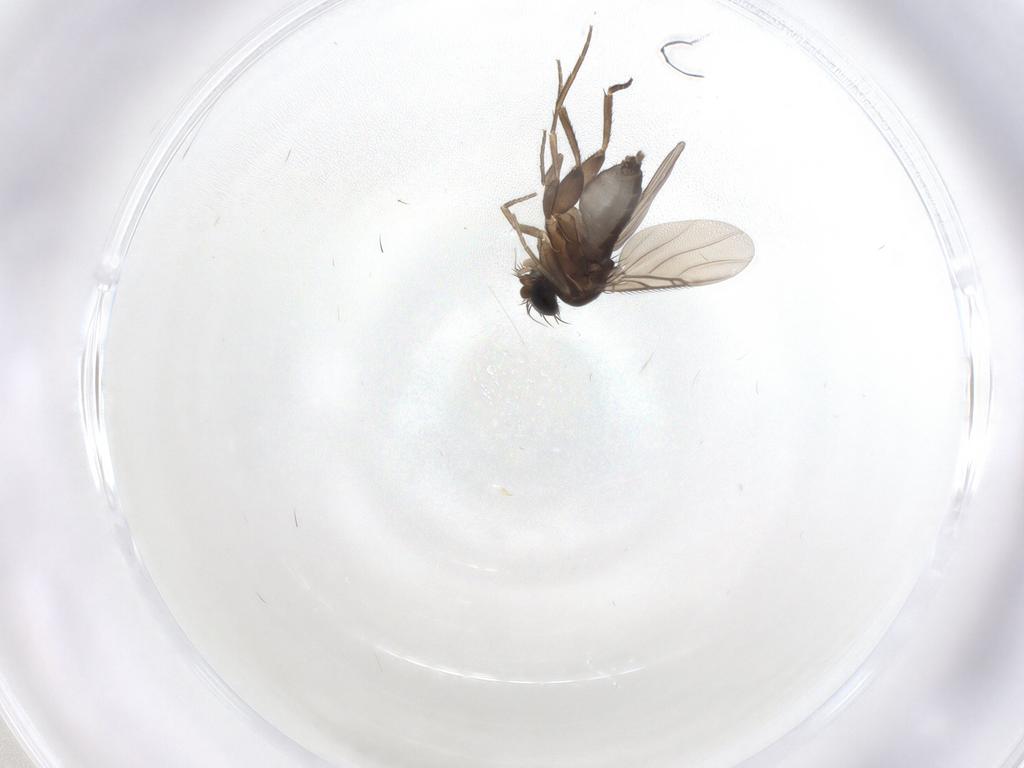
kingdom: Animalia
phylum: Arthropoda
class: Insecta
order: Diptera
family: Phoridae
